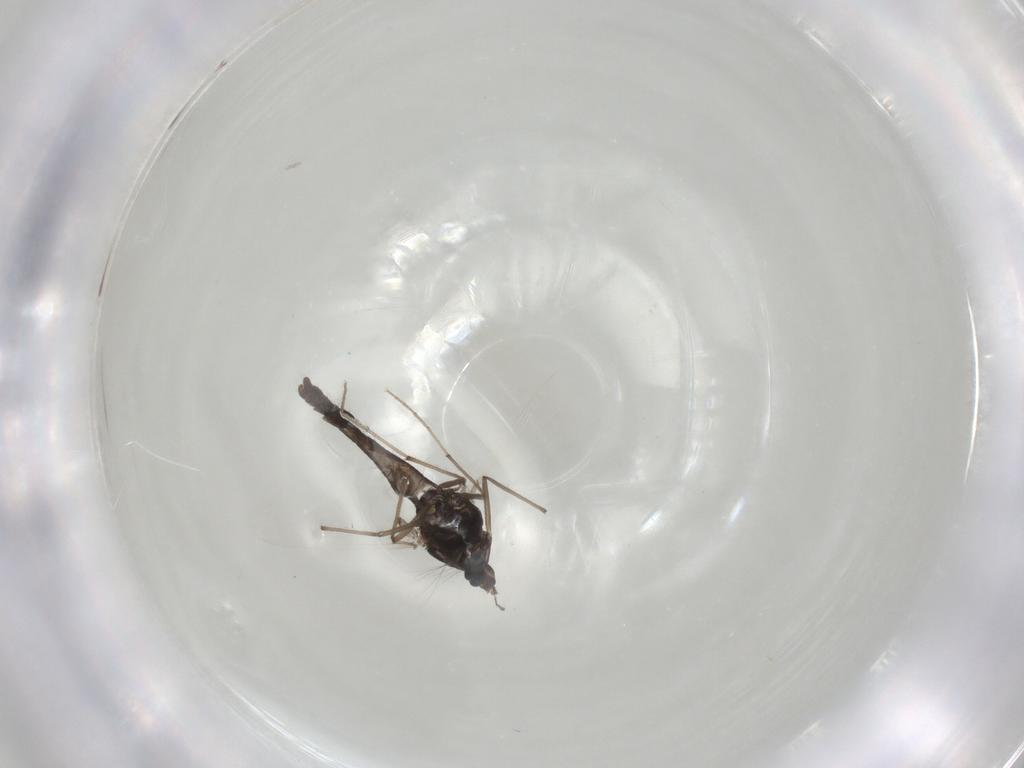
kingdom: Animalia
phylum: Arthropoda
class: Insecta
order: Diptera
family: Chironomidae
